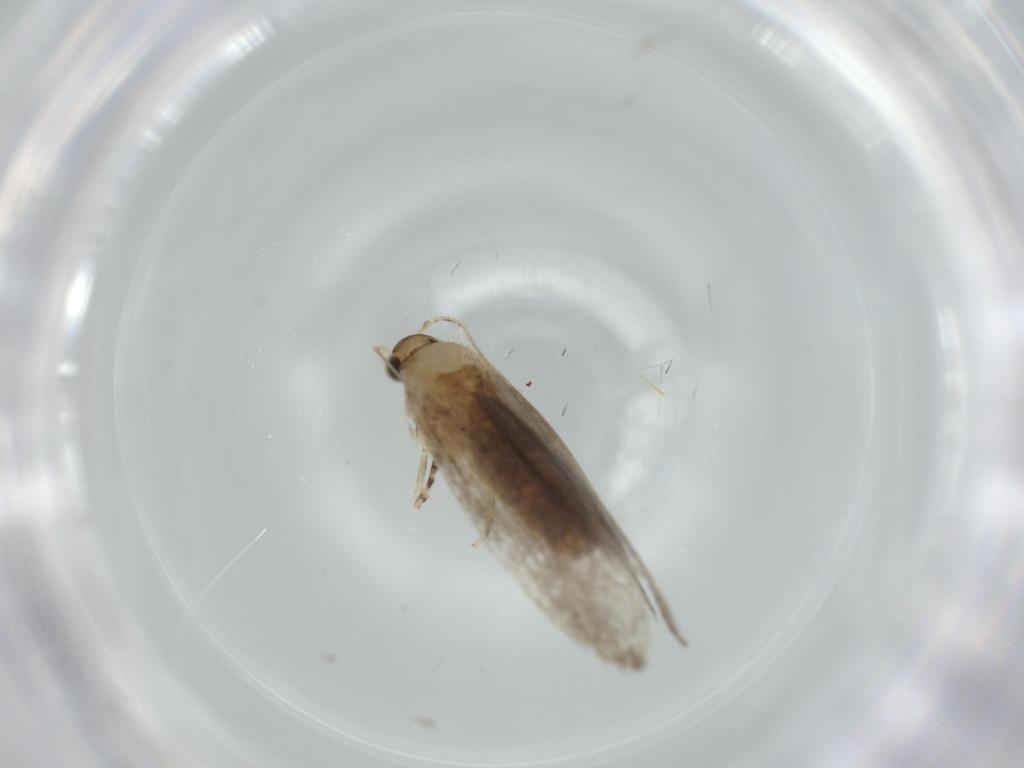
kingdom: Animalia
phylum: Arthropoda
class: Insecta
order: Lepidoptera
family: Tineidae
